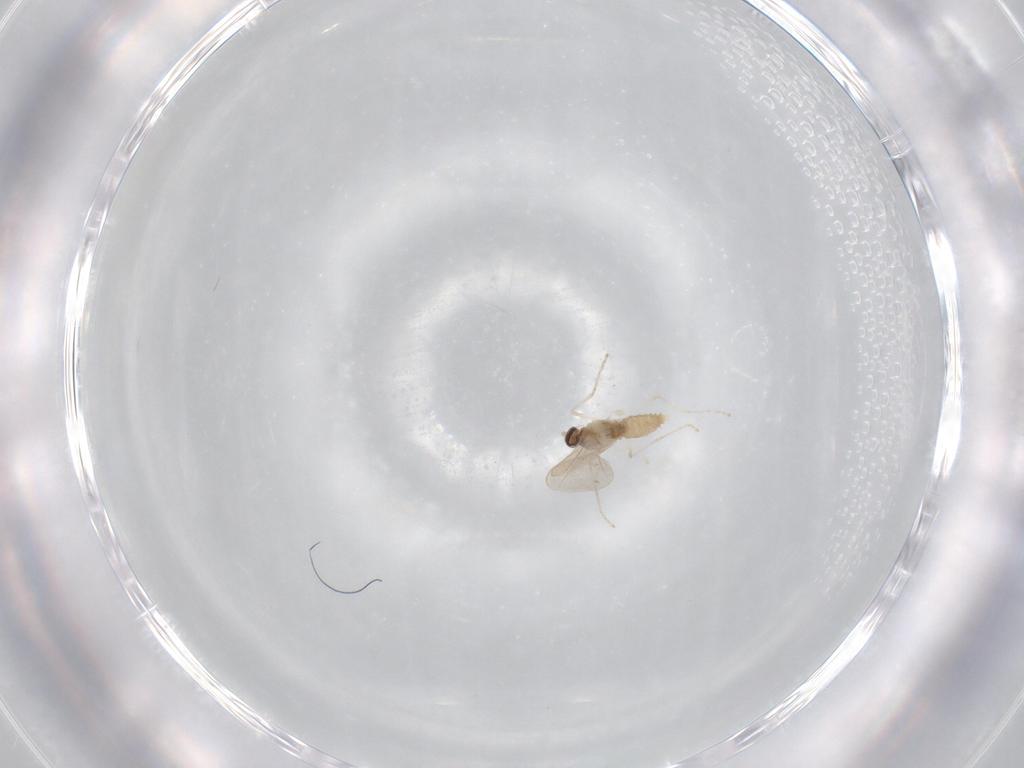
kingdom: Animalia
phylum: Arthropoda
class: Insecta
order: Diptera
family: Cecidomyiidae
